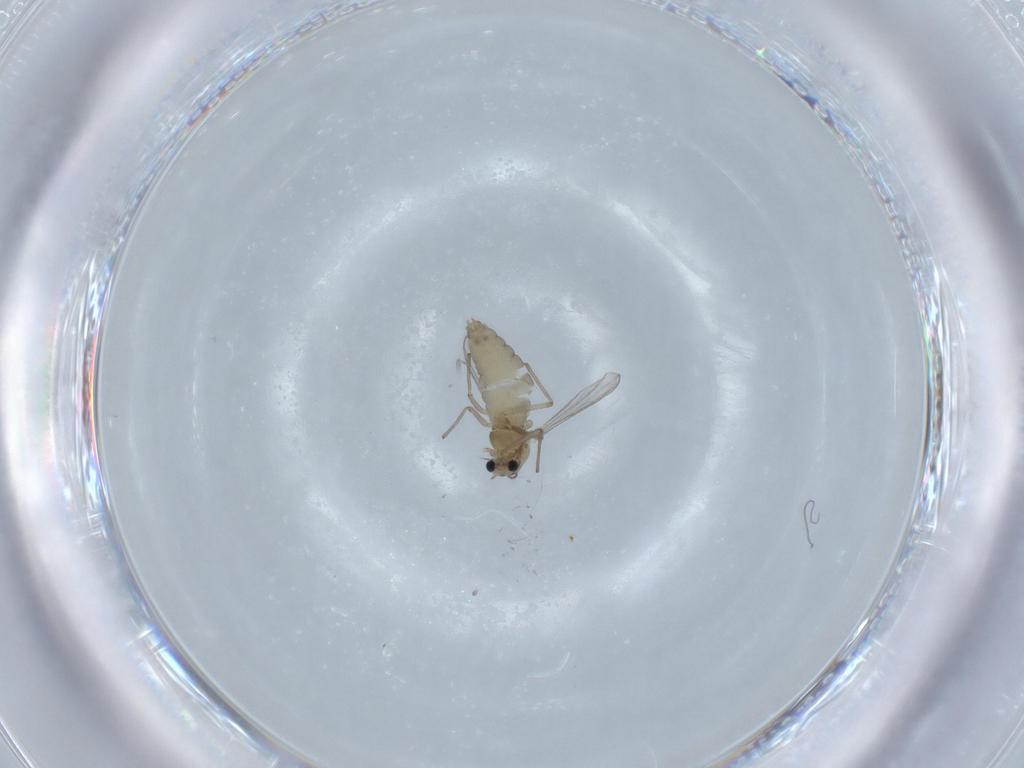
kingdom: Animalia
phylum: Arthropoda
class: Insecta
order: Diptera
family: Chironomidae
